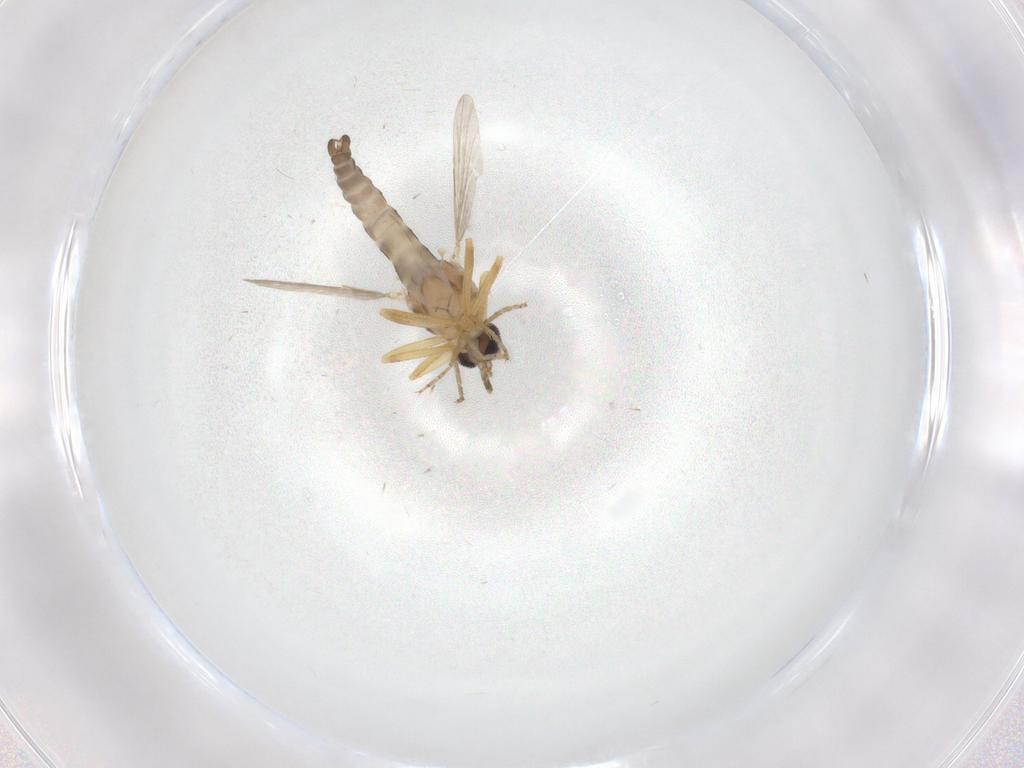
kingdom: Animalia
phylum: Arthropoda
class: Insecta
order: Diptera
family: Ceratopogonidae
